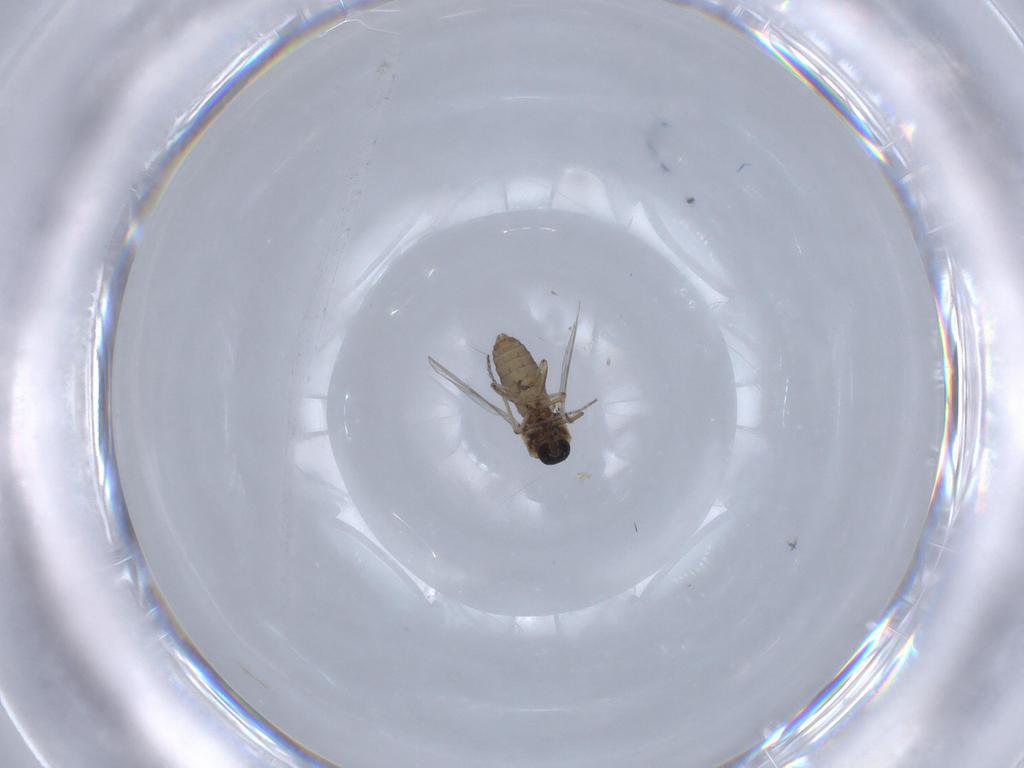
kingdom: Animalia
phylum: Arthropoda
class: Insecta
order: Diptera
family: Ceratopogonidae
